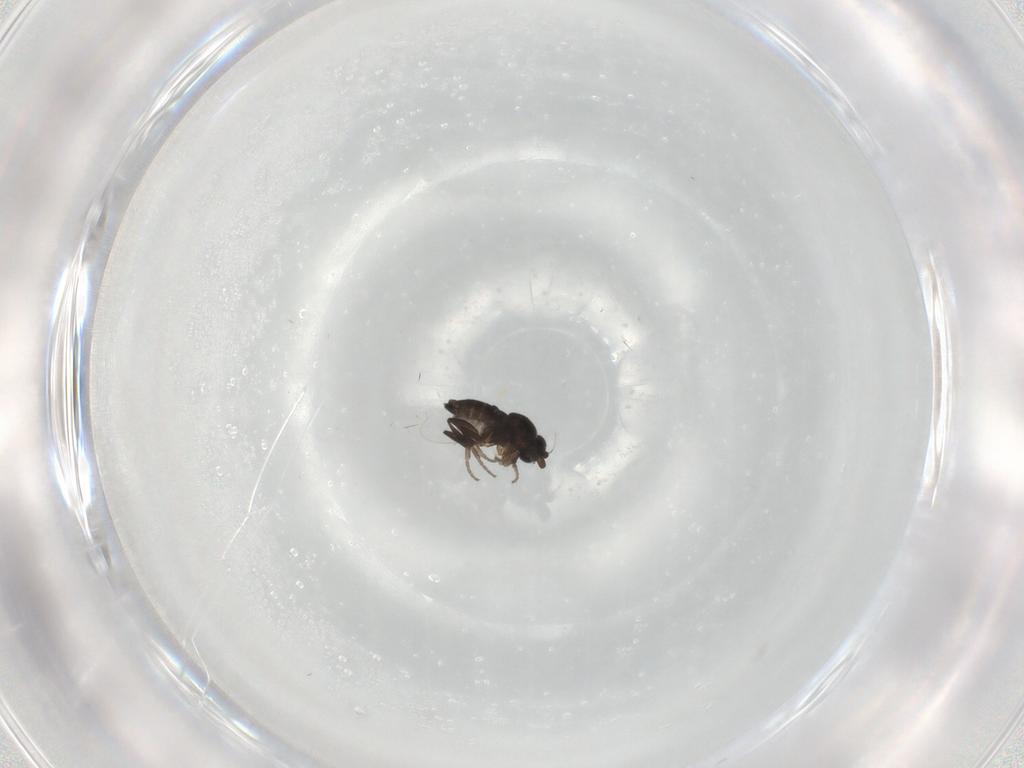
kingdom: Animalia
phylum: Arthropoda
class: Insecta
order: Diptera
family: Phoridae
